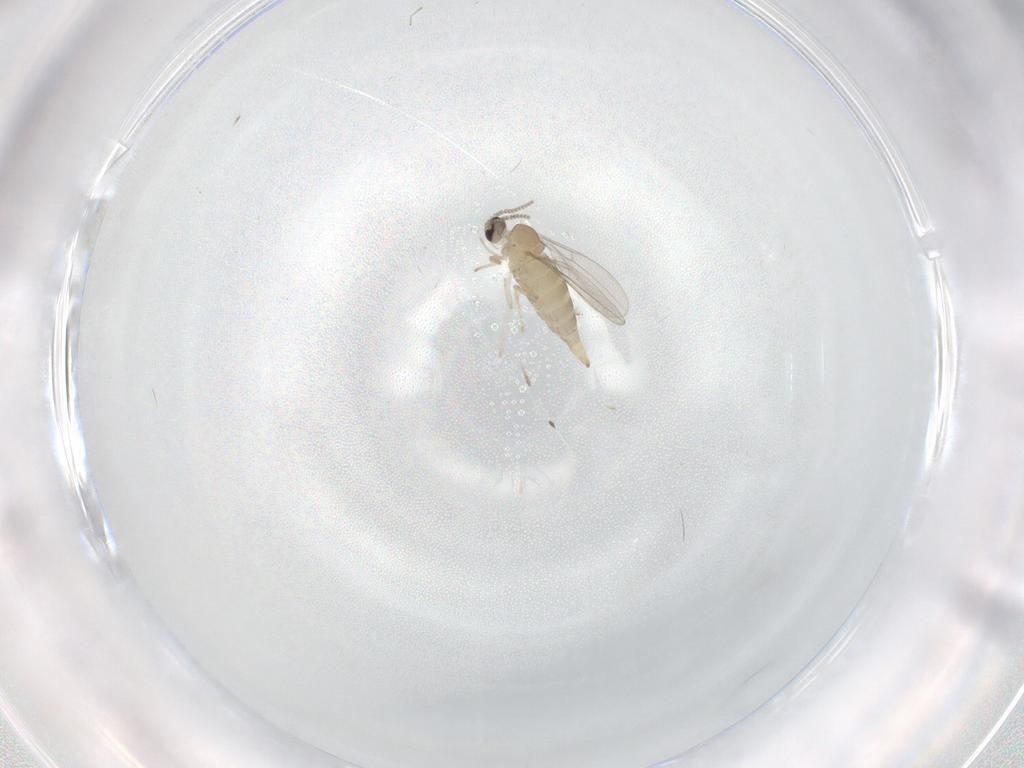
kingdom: Animalia
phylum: Arthropoda
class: Insecta
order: Diptera
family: Cecidomyiidae
